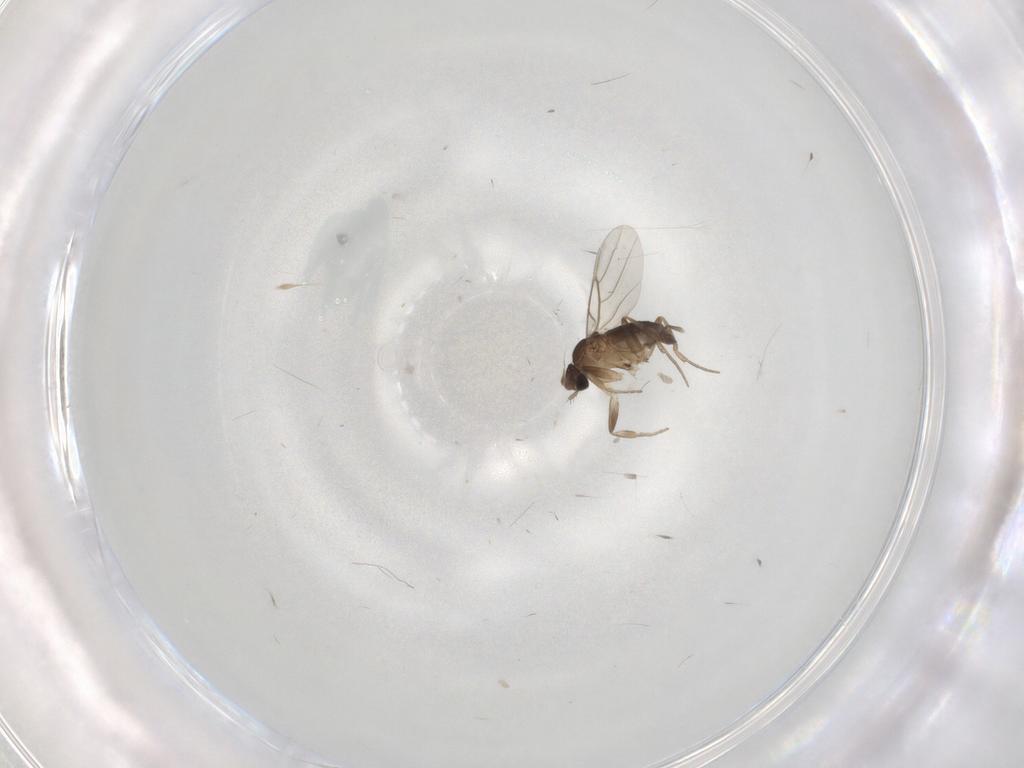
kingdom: Animalia
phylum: Arthropoda
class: Insecta
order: Diptera
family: Phoridae
